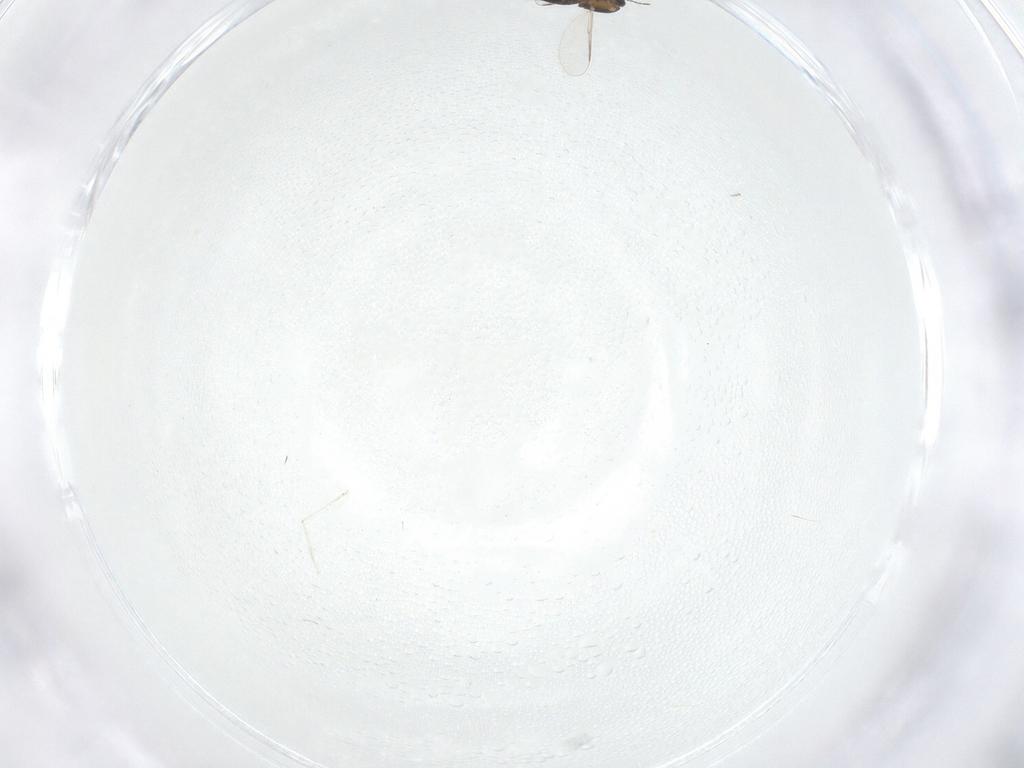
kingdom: Animalia
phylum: Arthropoda
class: Insecta
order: Diptera
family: Cecidomyiidae
